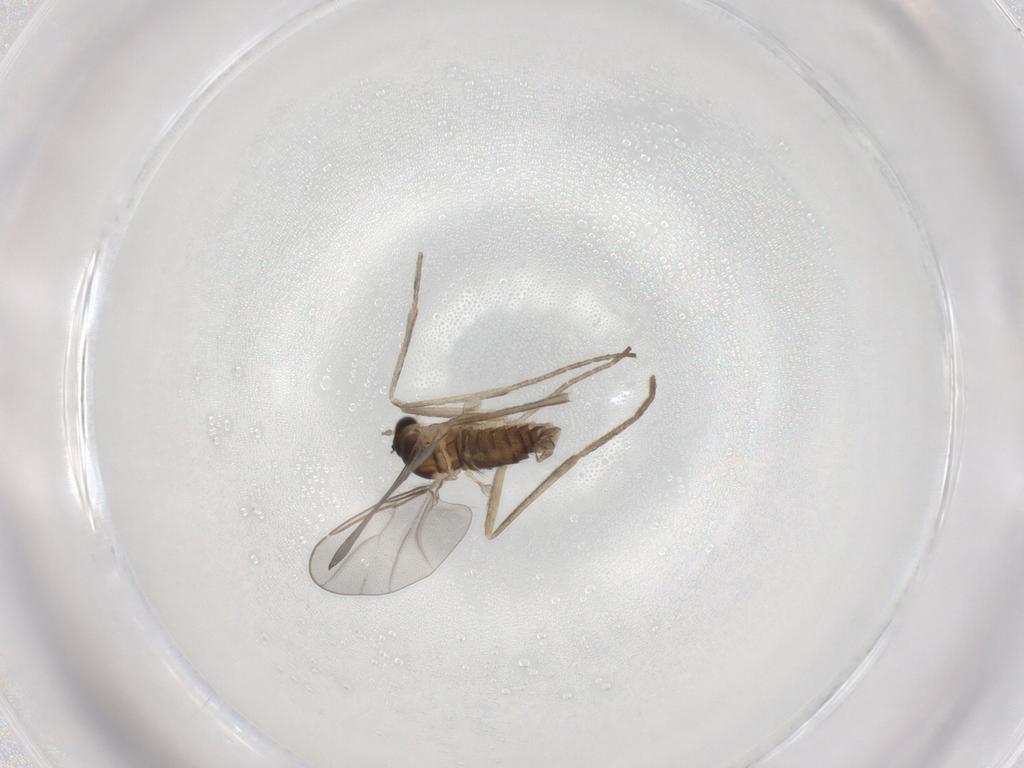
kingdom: Animalia
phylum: Arthropoda
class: Insecta
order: Diptera
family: Cecidomyiidae
